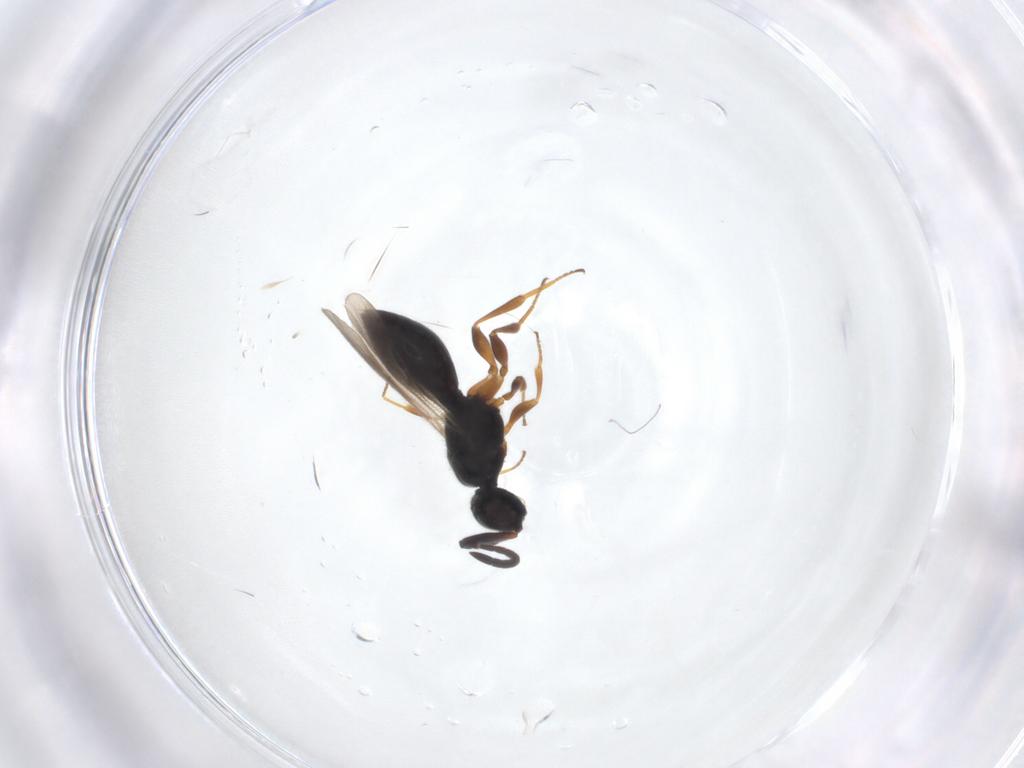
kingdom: Animalia
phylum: Arthropoda
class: Insecta
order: Hymenoptera
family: Megaspilidae
